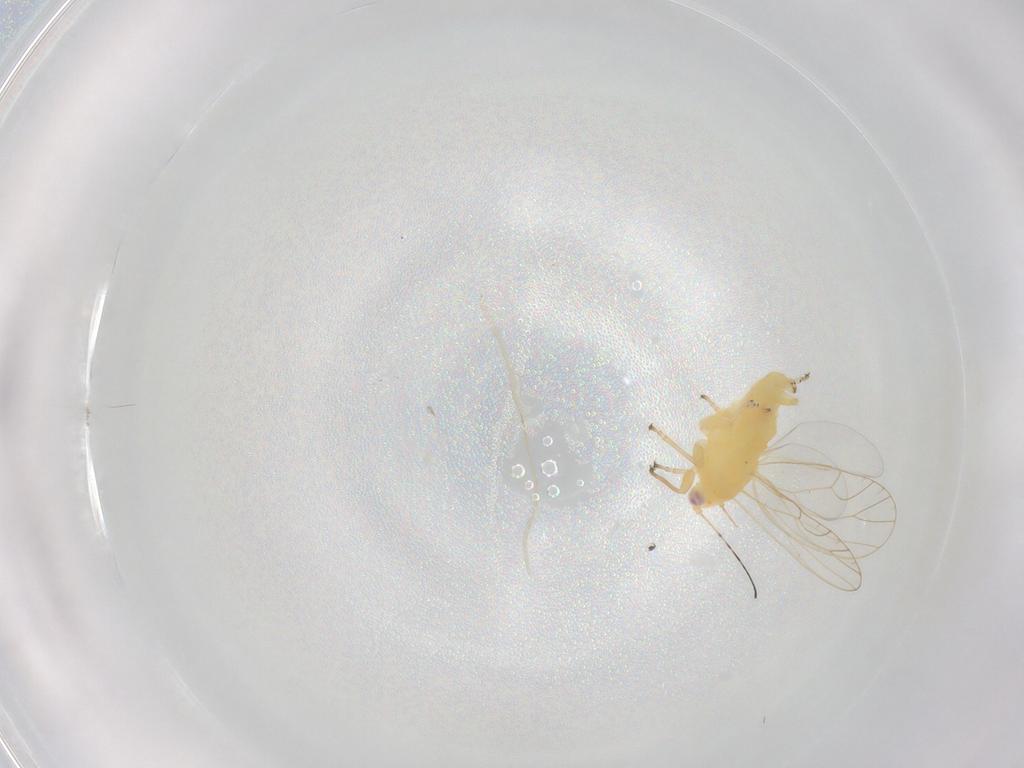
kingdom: Animalia
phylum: Arthropoda
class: Insecta
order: Hemiptera
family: Psyllidae
